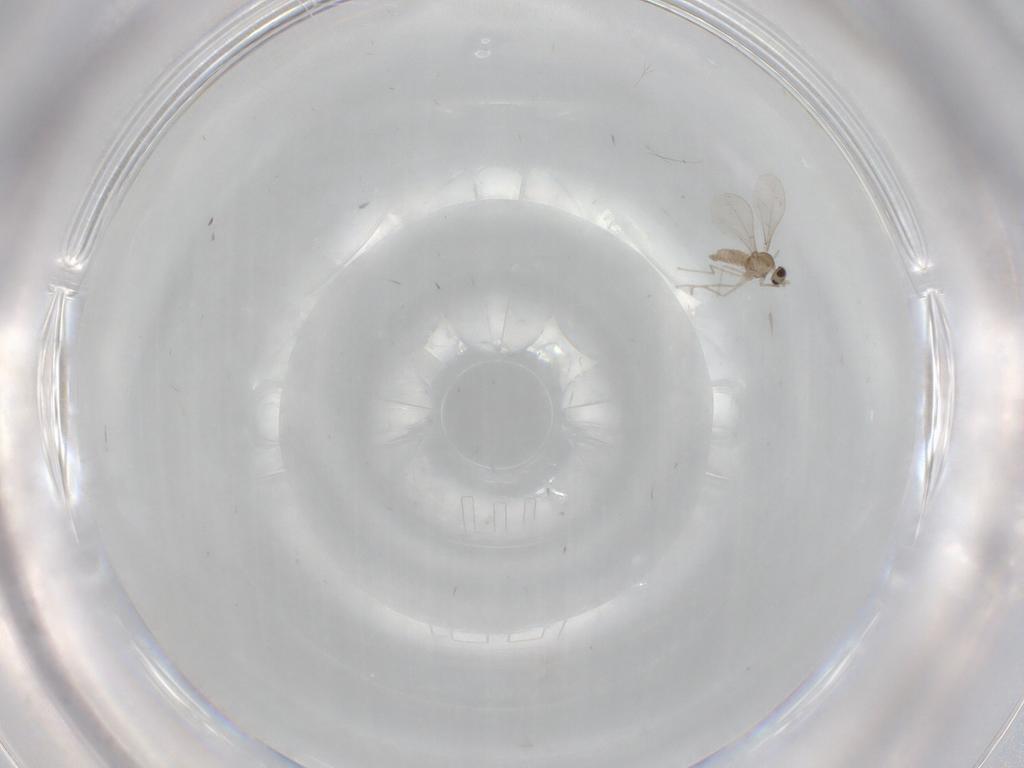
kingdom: Animalia
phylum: Arthropoda
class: Insecta
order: Diptera
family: Cecidomyiidae
